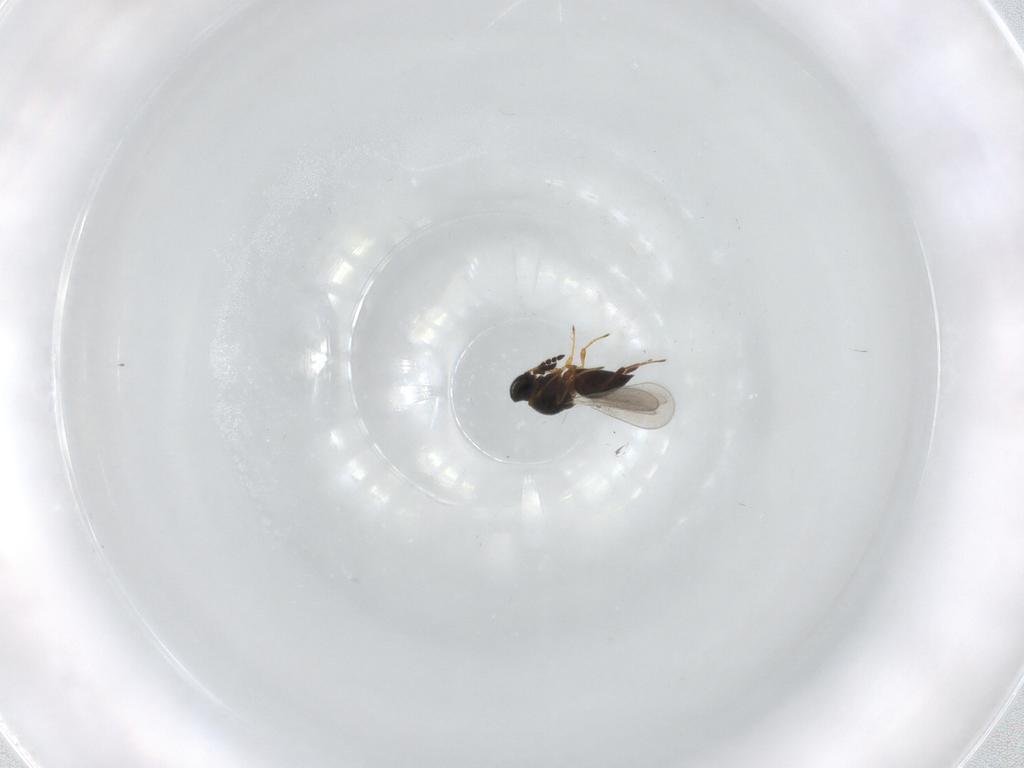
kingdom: Animalia
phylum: Arthropoda
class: Insecta
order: Hymenoptera
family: Platygastridae
